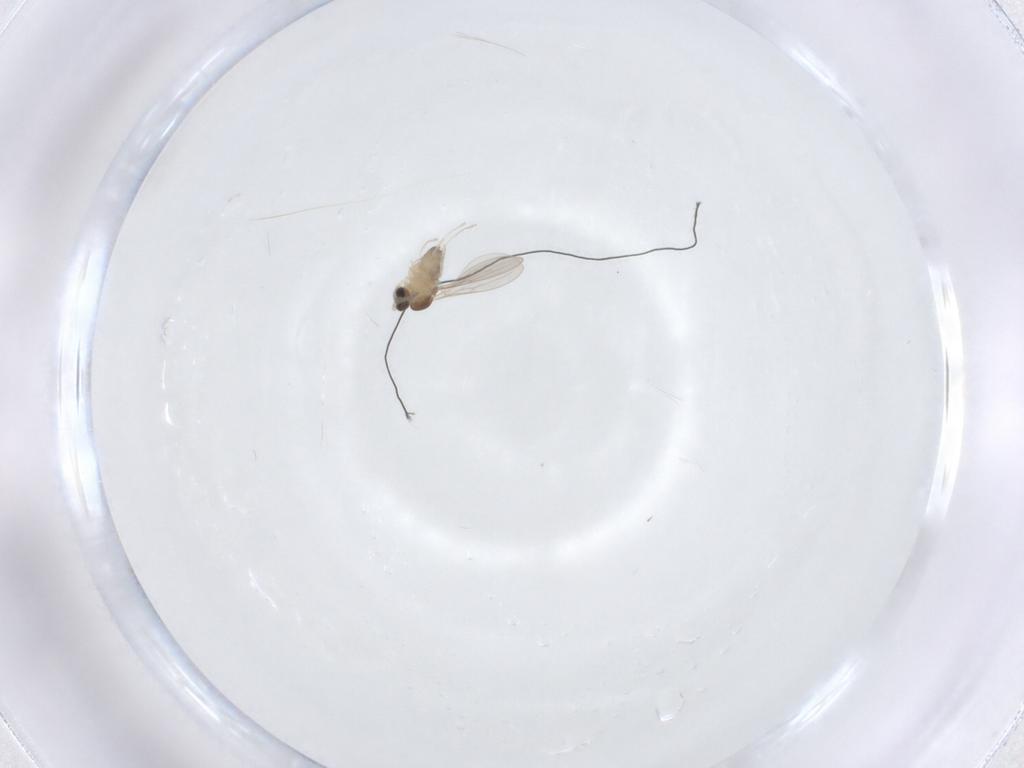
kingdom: Animalia
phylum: Arthropoda
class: Insecta
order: Diptera
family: Cecidomyiidae
